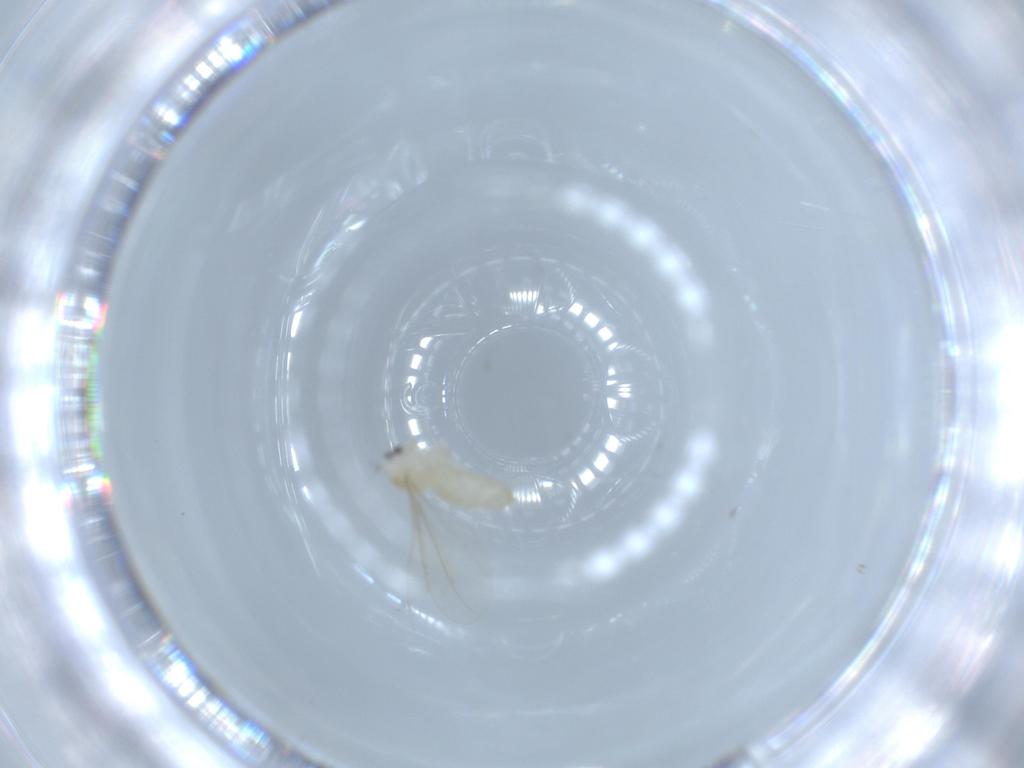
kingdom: Animalia
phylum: Arthropoda
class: Insecta
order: Diptera
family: Cecidomyiidae
